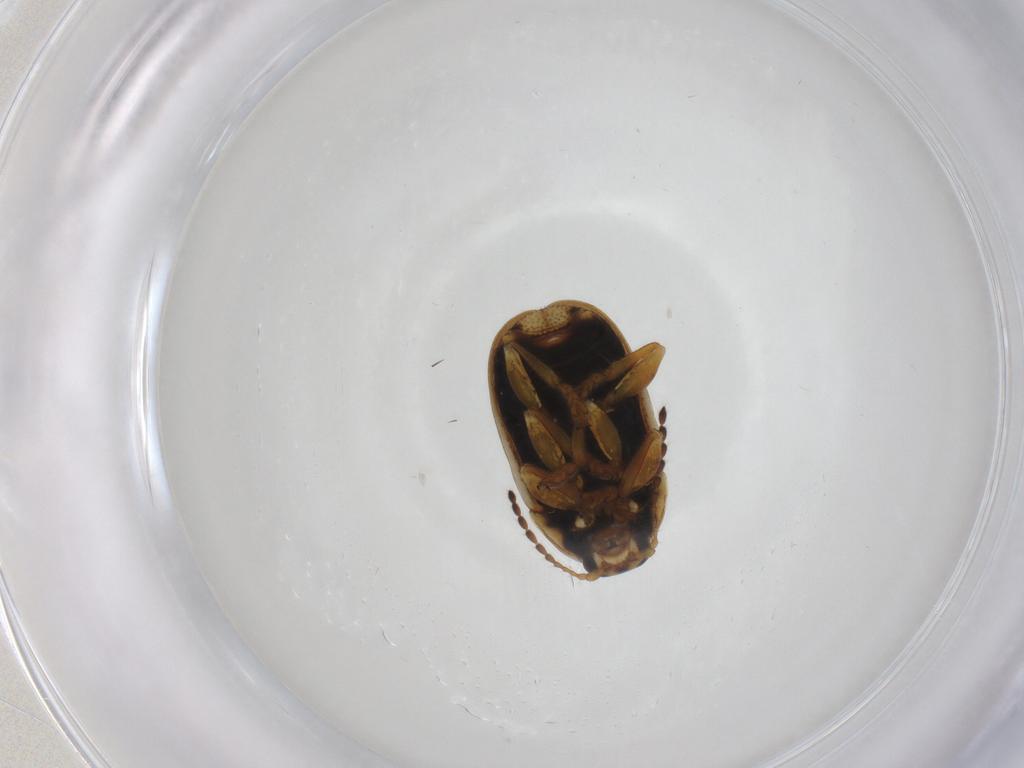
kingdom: Animalia
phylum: Arthropoda
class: Insecta
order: Coleoptera
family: Chrysomelidae
